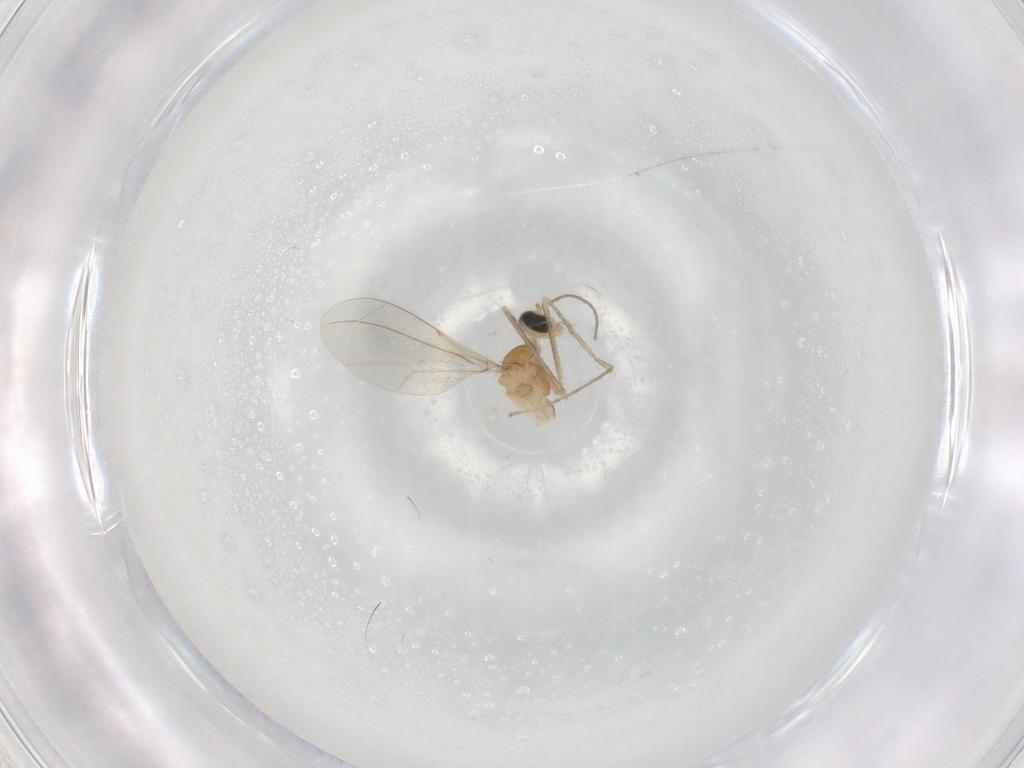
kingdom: Animalia
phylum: Arthropoda
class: Insecta
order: Diptera
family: Cecidomyiidae
